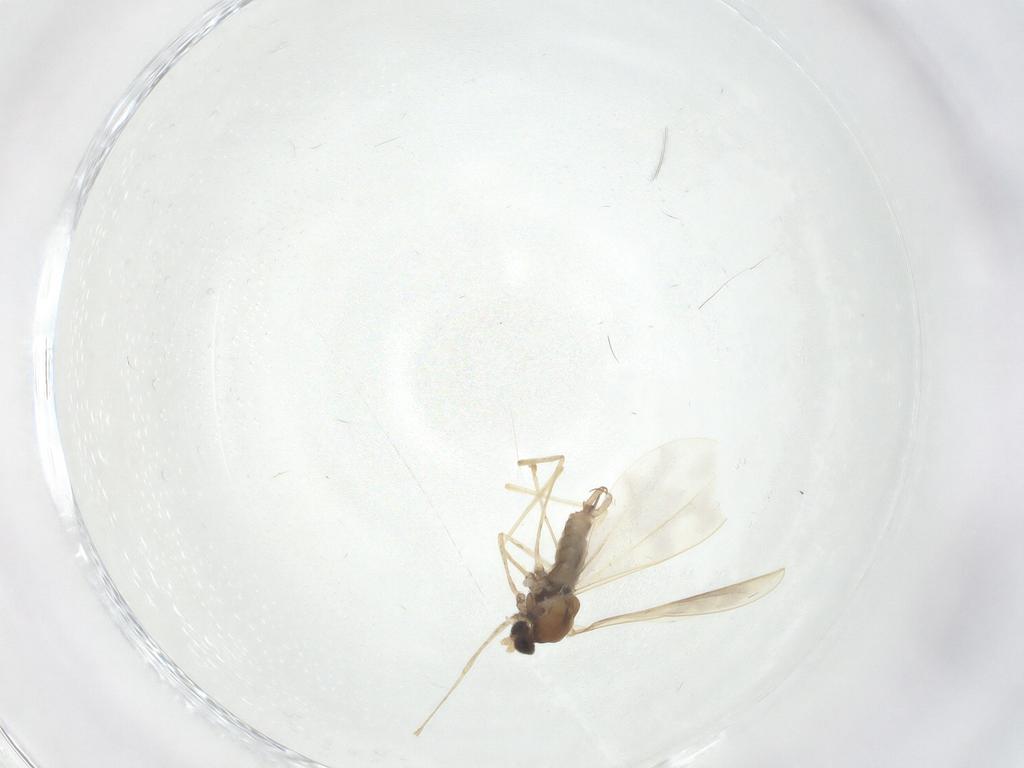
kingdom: Animalia
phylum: Arthropoda
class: Insecta
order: Diptera
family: Cecidomyiidae
